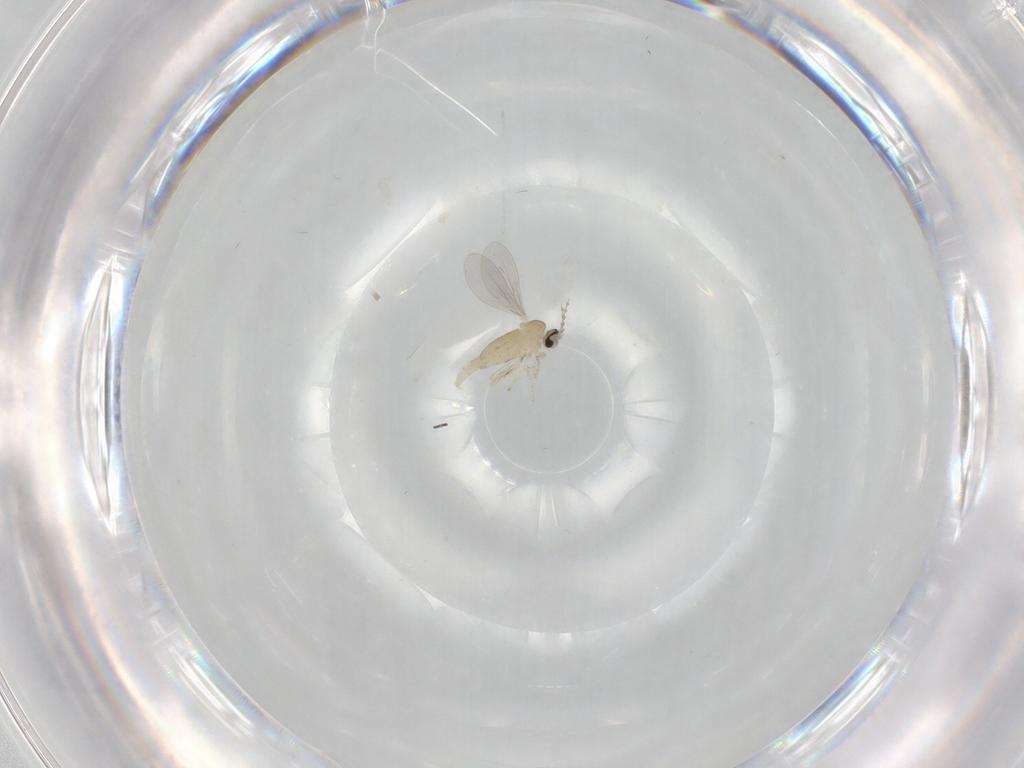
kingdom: Animalia
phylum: Arthropoda
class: Insecta
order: Diptera
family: Cecidomyiidae
